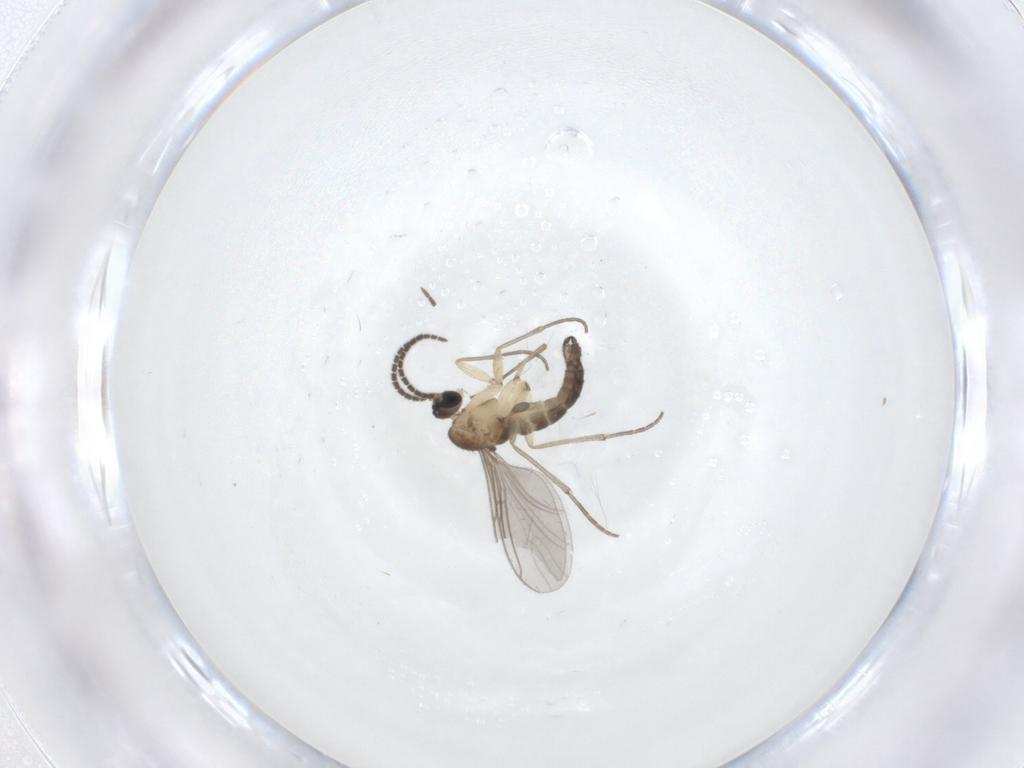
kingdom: Animalia
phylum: Arthropoda
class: Insecta
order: Diptera
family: Sciaridae
